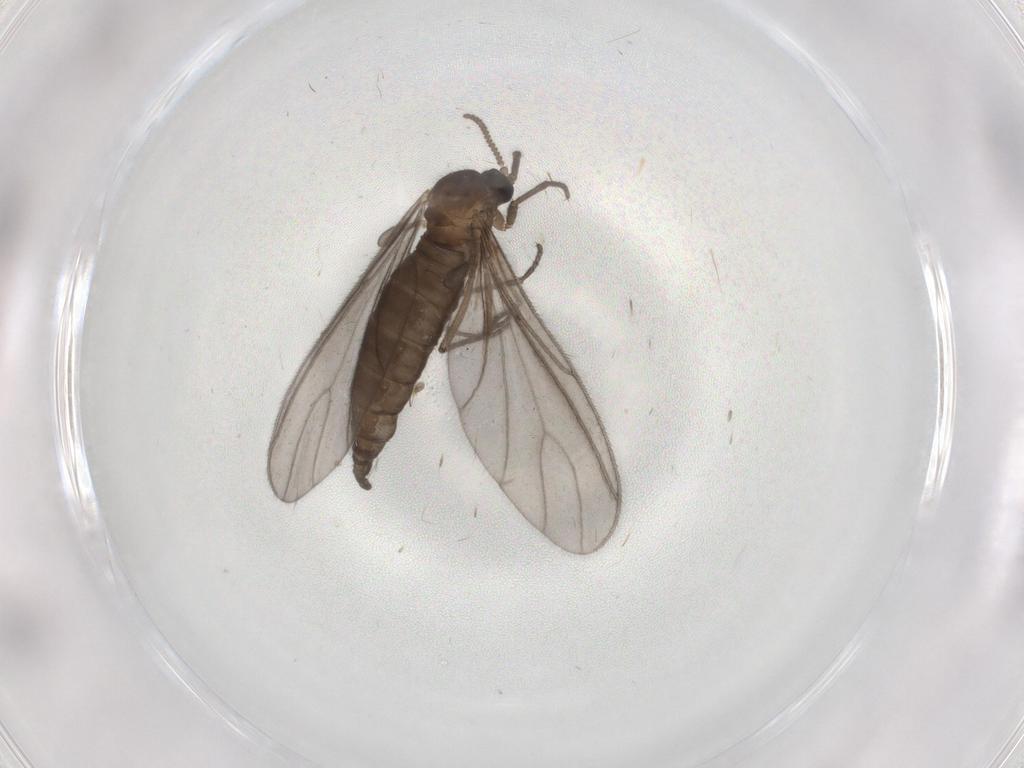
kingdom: Animalia
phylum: Arthropoda
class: Insecta
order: Diptera
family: Sciaridae
